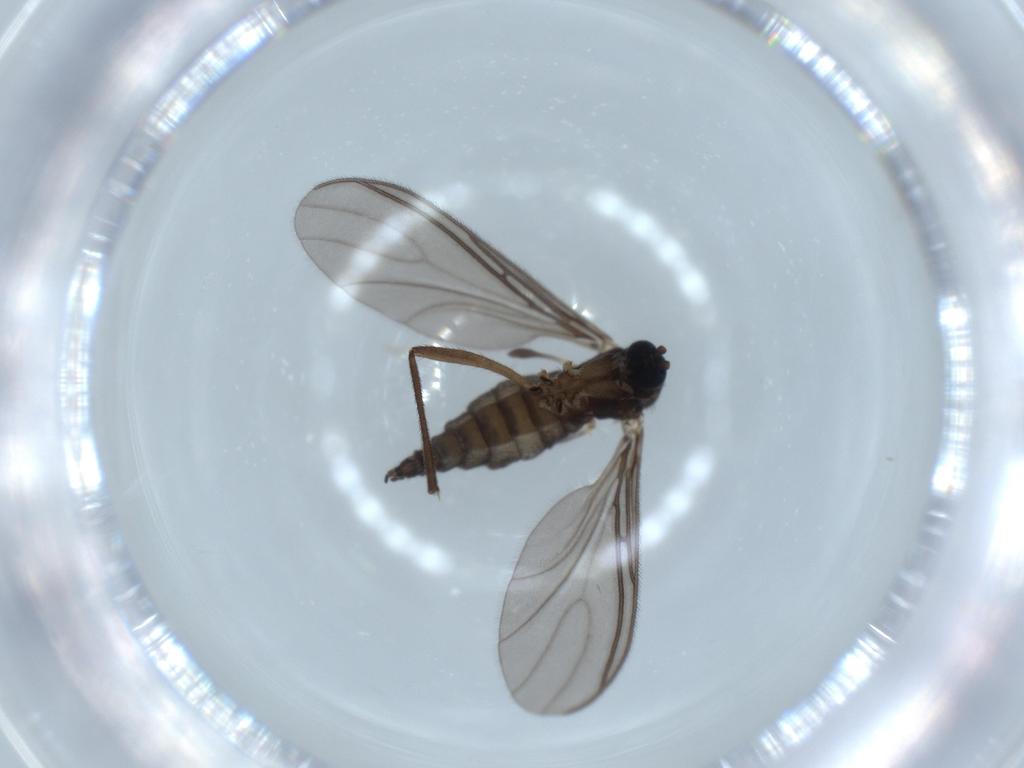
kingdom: Animalia
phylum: Arthropoda
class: Insecta
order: Diptera
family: Sciaridae
